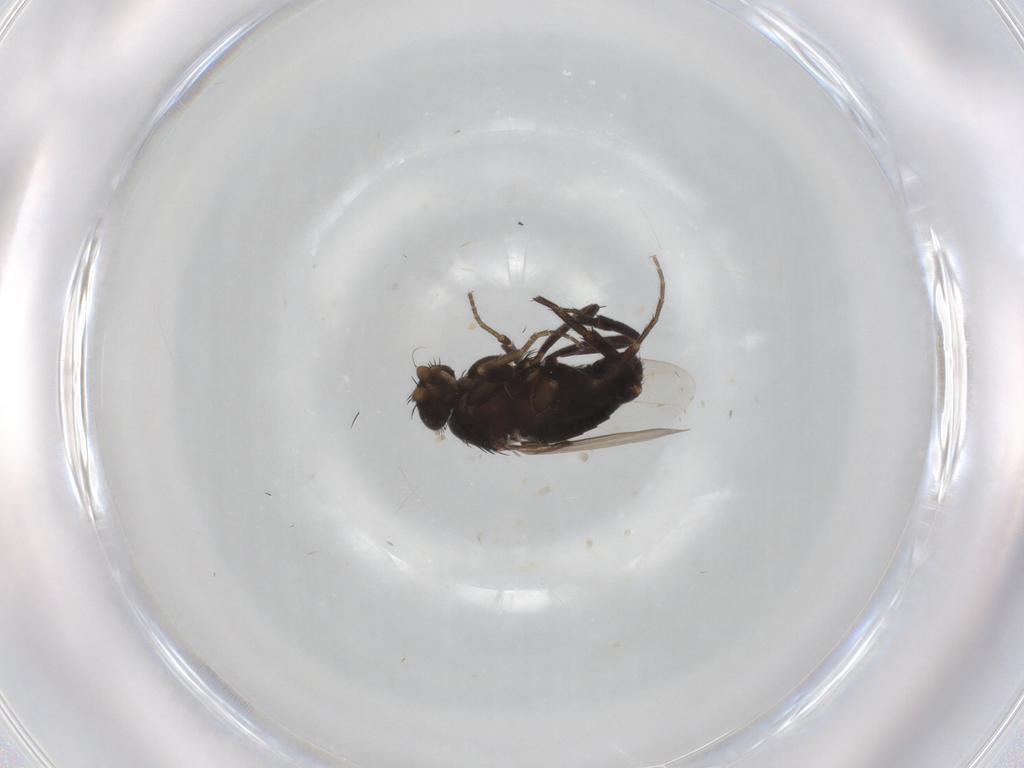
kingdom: Animalia
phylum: Arthropoda
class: Insecta
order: Diptera
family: Phoridae
